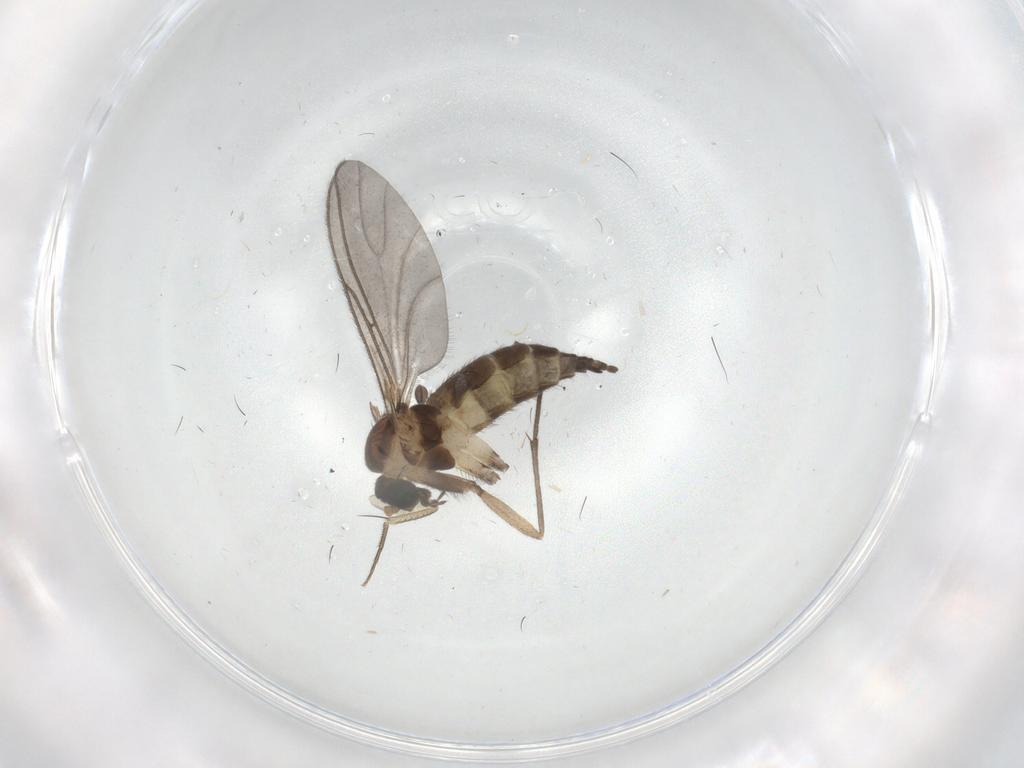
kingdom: Animalia
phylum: Arthropoda
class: Insecta
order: Diptera
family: Sciaridae
